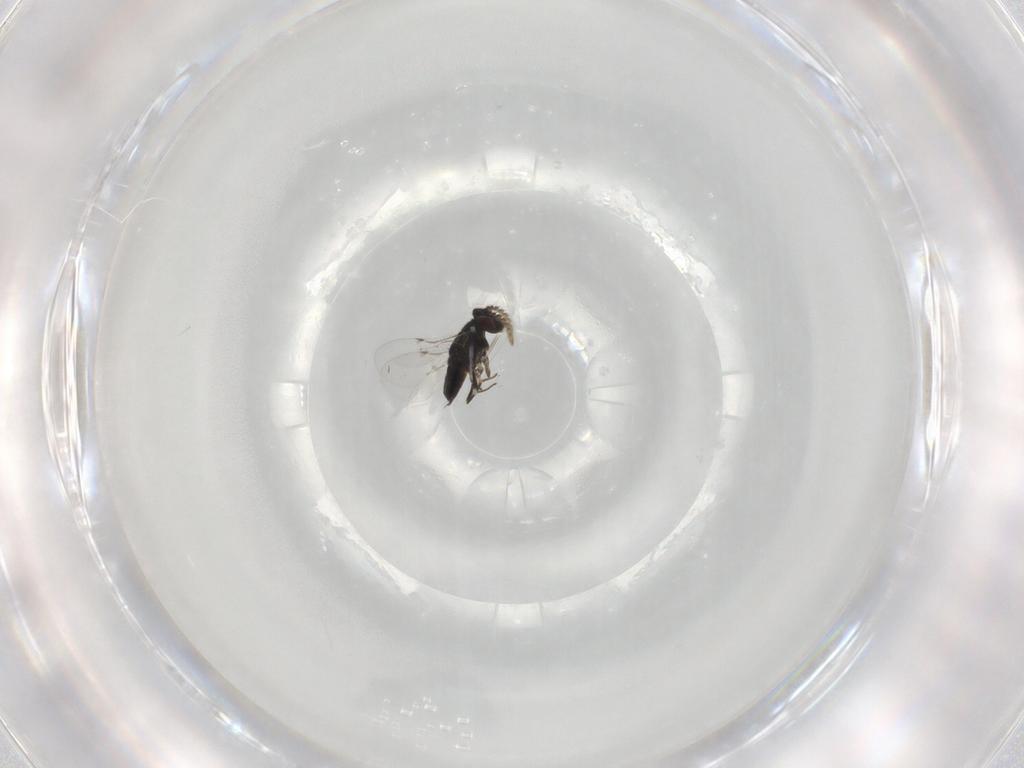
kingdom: Animalia
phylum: Arthropoda
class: Insecta
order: Hymenoptera
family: Encyrtidae
